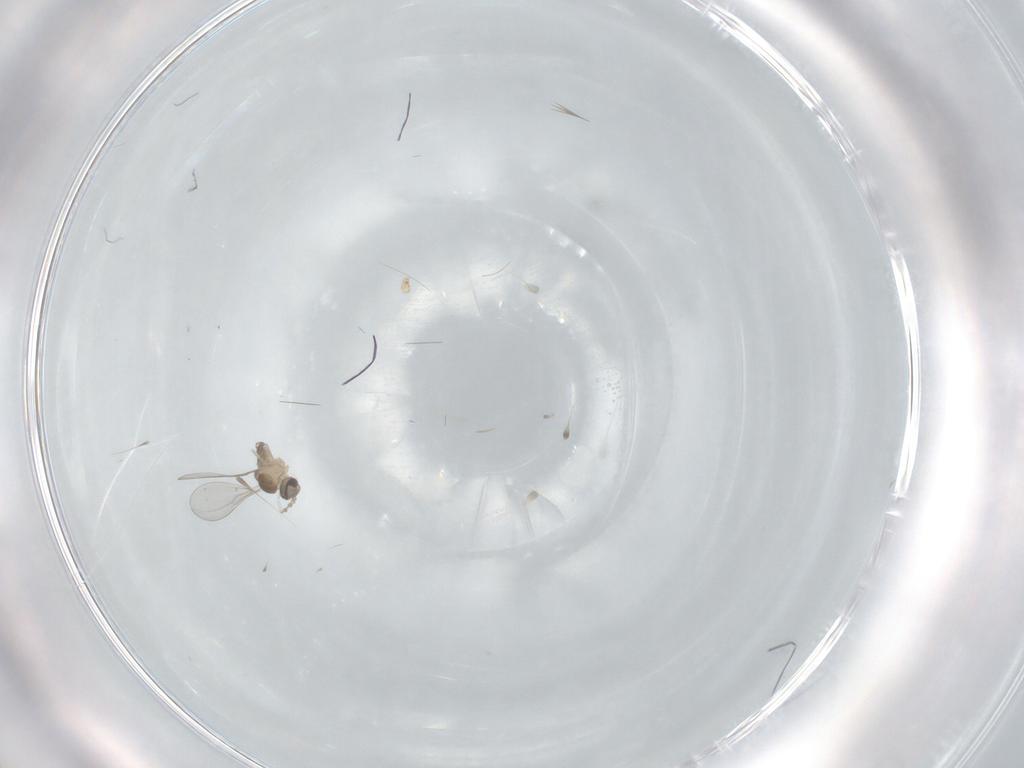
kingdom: Animalia
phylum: Arthropoda
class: Insecta
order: Diptera
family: Cecidomyiidae
